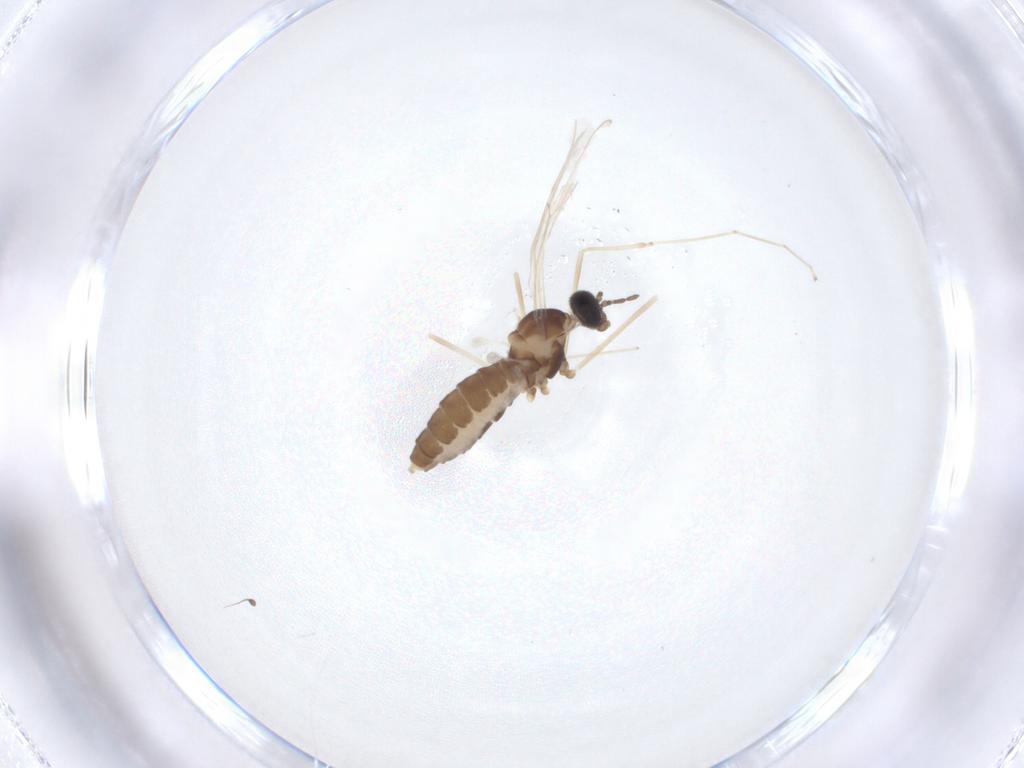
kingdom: Animalia
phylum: Arthropoda
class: Insecta
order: Diptera
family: Cecidomyiidae
